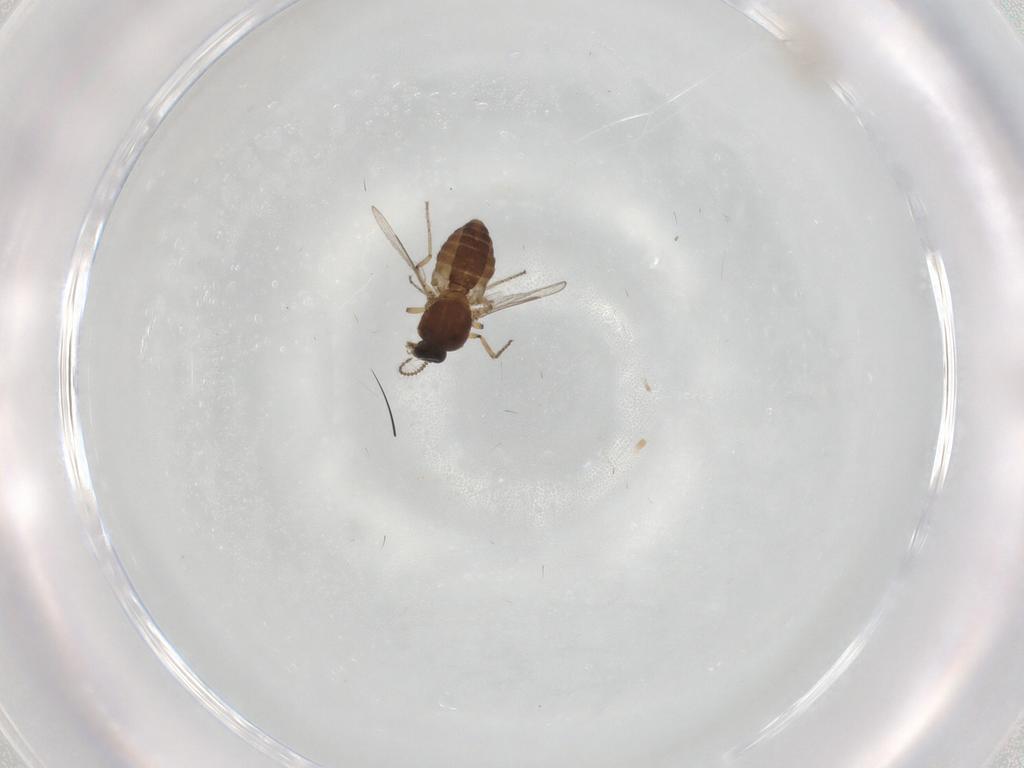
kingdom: Animalia
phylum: Arthropoda
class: Insecta
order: Diptera
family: Ceratopogonidae
